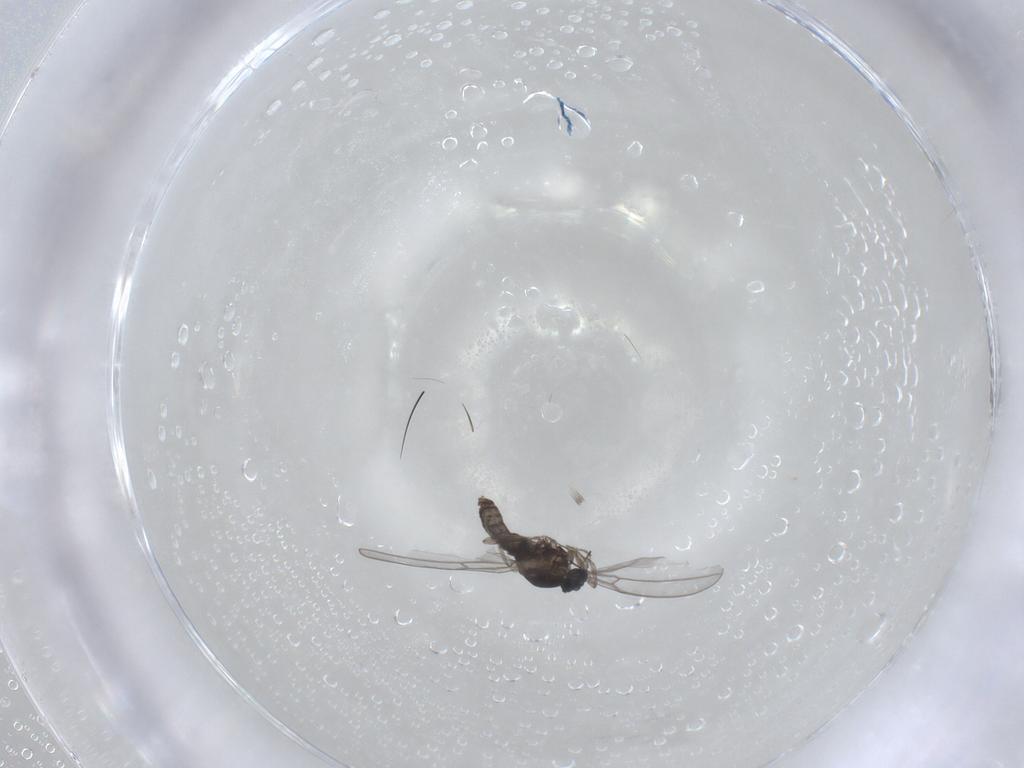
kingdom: Animalia
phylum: Arthropoda
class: Insecta
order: Diptera
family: Cecidomyiidae
